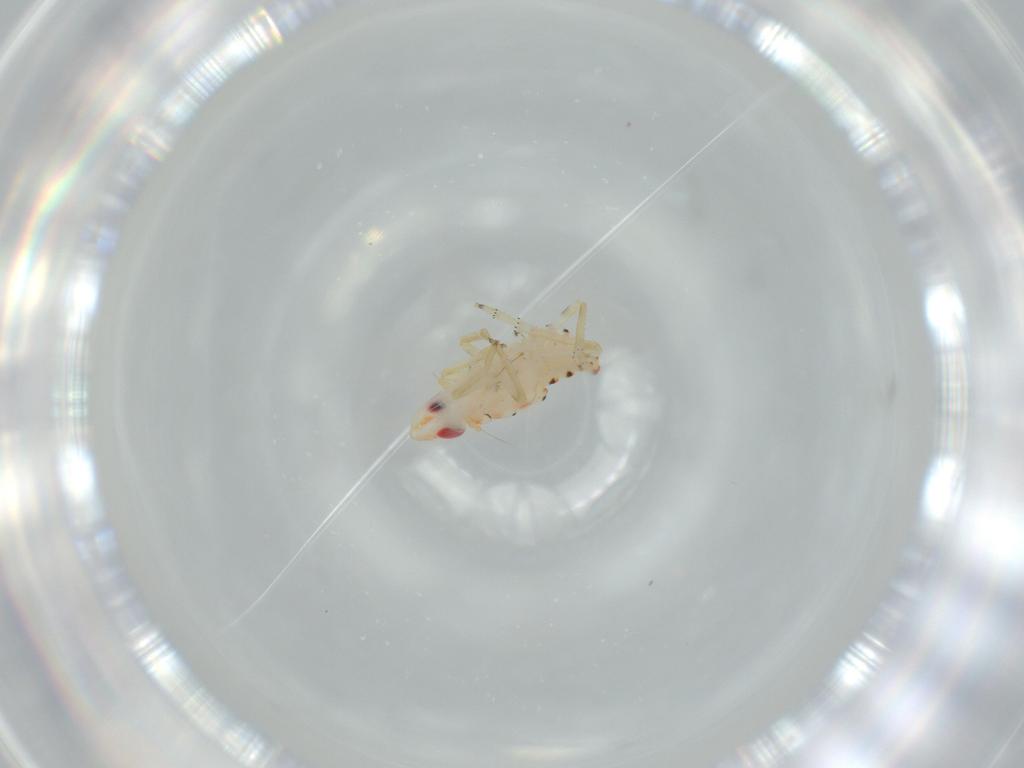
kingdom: Animalia
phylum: Arthropoda
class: Insecta
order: Hemiptera
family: Tropiduchidae
